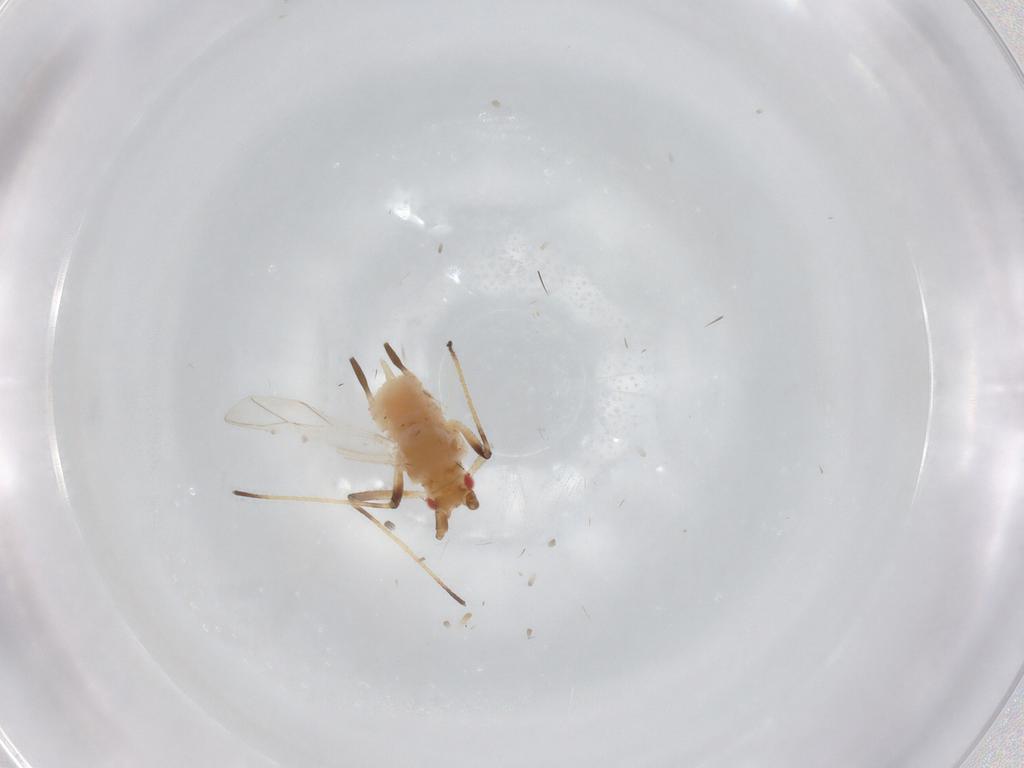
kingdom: Animalia
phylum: Arthropoda
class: Insecta
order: Hemiptera
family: Aphididae
